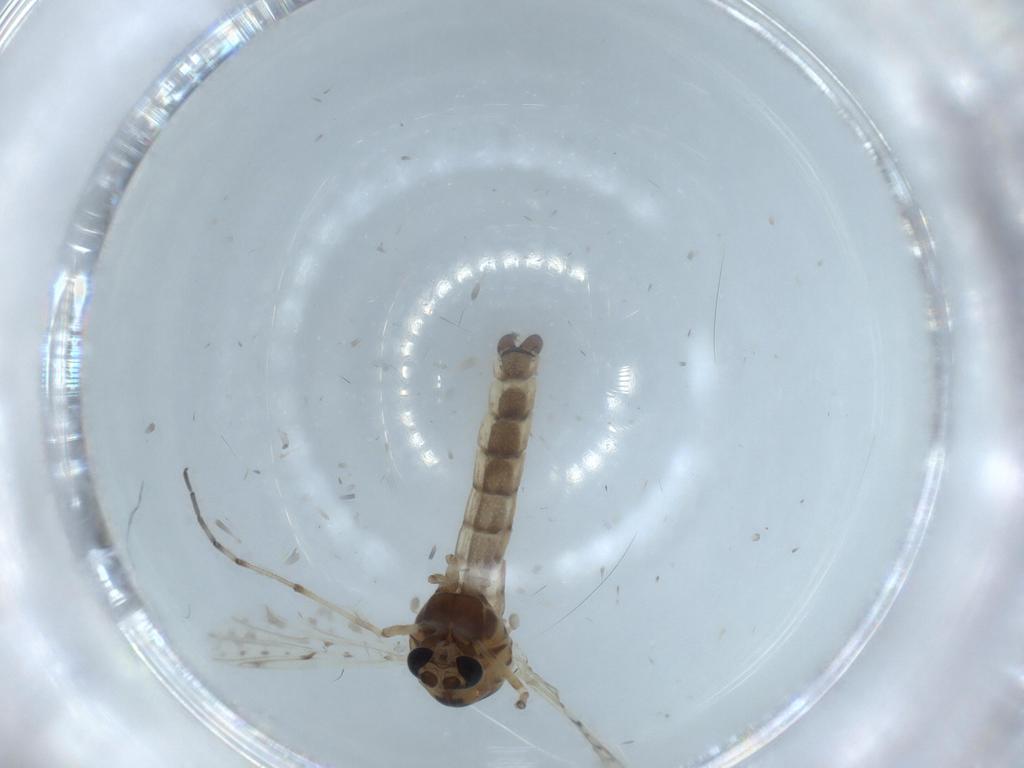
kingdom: Animalia
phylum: Arthropoda
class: Insecta
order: Diptera
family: Chironomidae
